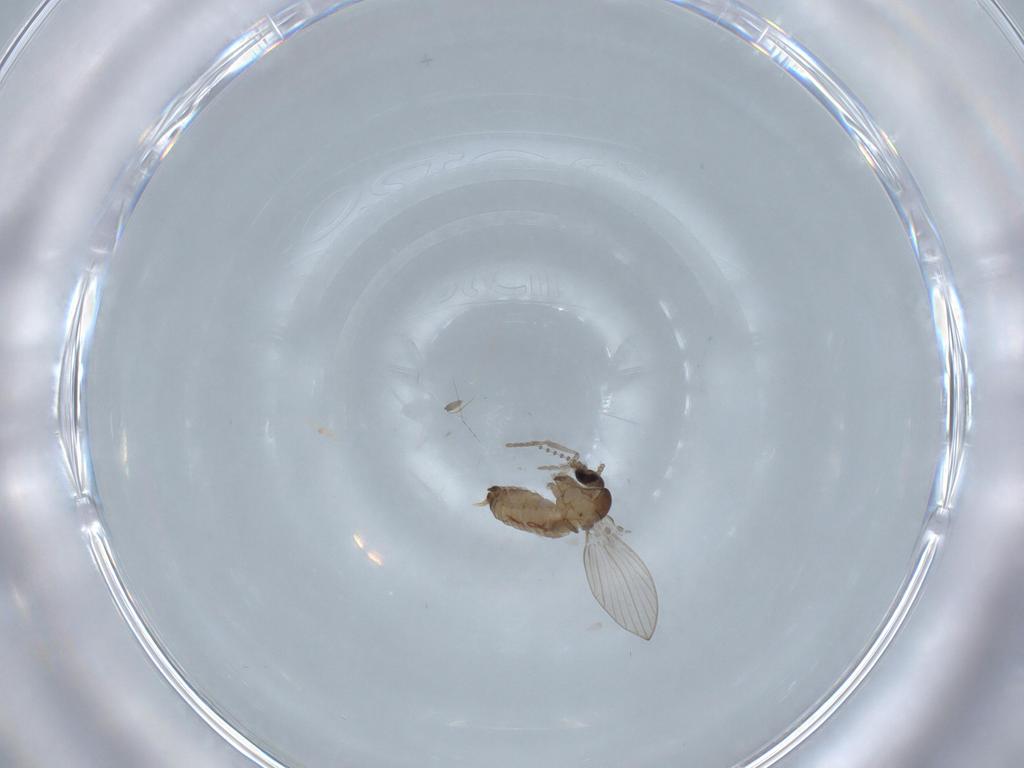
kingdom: Animalia
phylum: Arthropoda
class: Insecta
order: Diptera
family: Psychodidae
